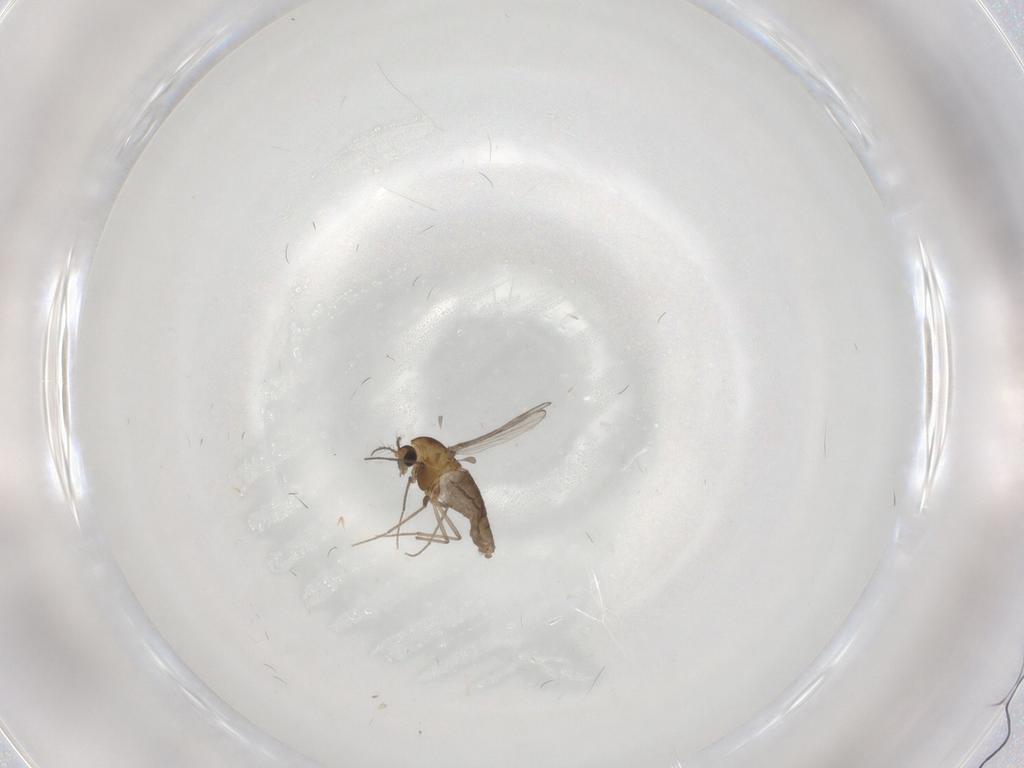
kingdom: Animalia
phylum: Arthropoda
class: Insecta
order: Diptera
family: Chironomidae
